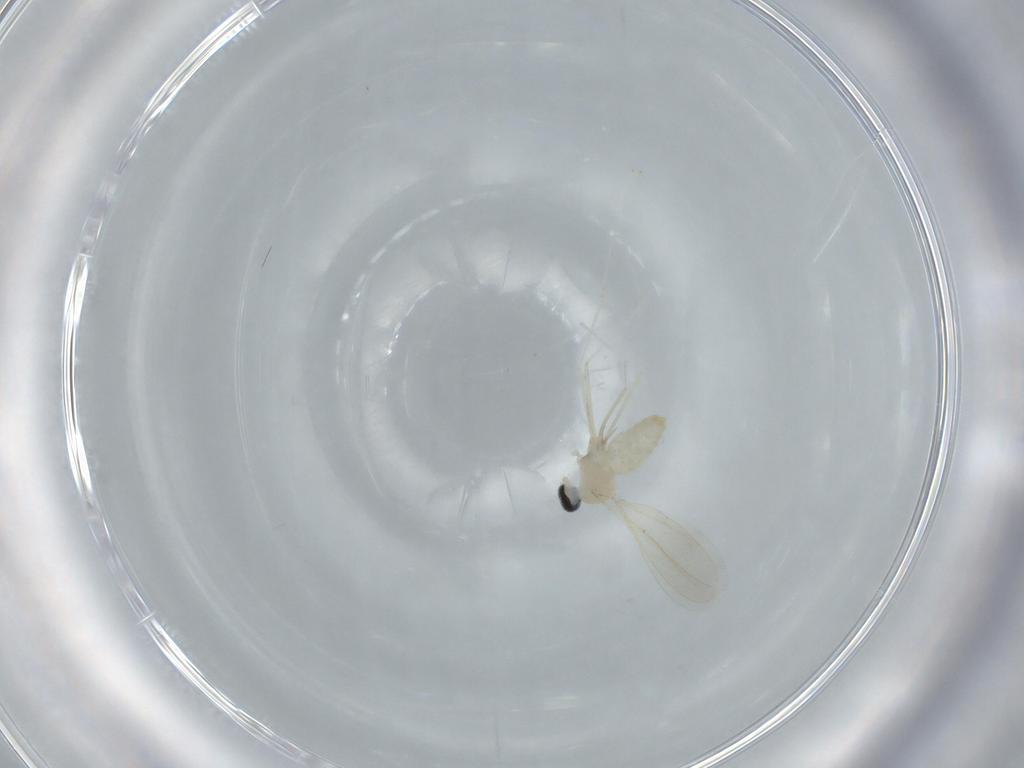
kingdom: Animalia
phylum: Arthropoda
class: Insecta
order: Diptera
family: Cecidomyiidae
